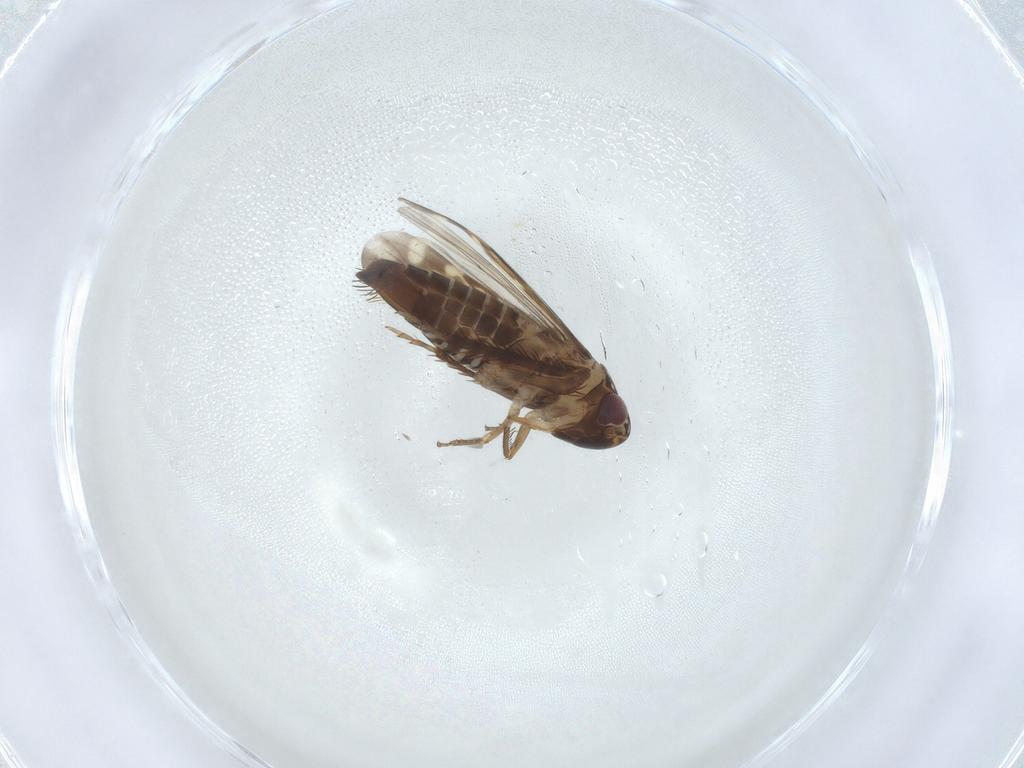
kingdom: Animalia
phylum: Arthropoda
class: Insecta
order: Hemiptera
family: Cicadellidae
